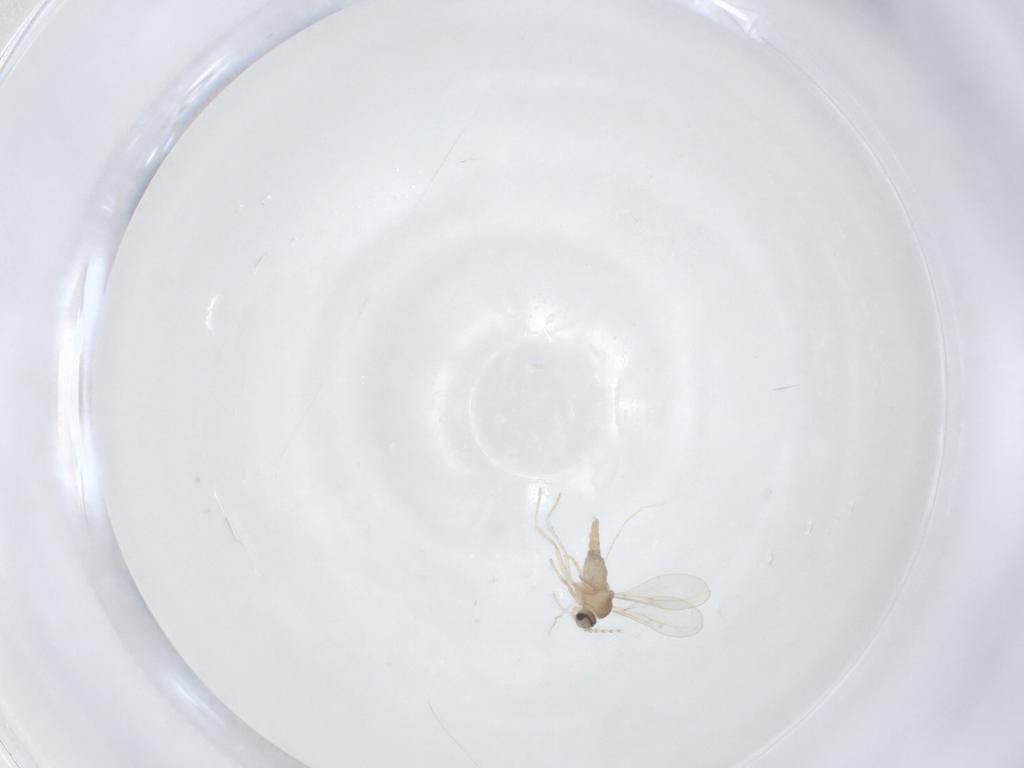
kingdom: Animalia
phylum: Arthropoda
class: Insecta
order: Diptera
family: Cecidomyiidae
